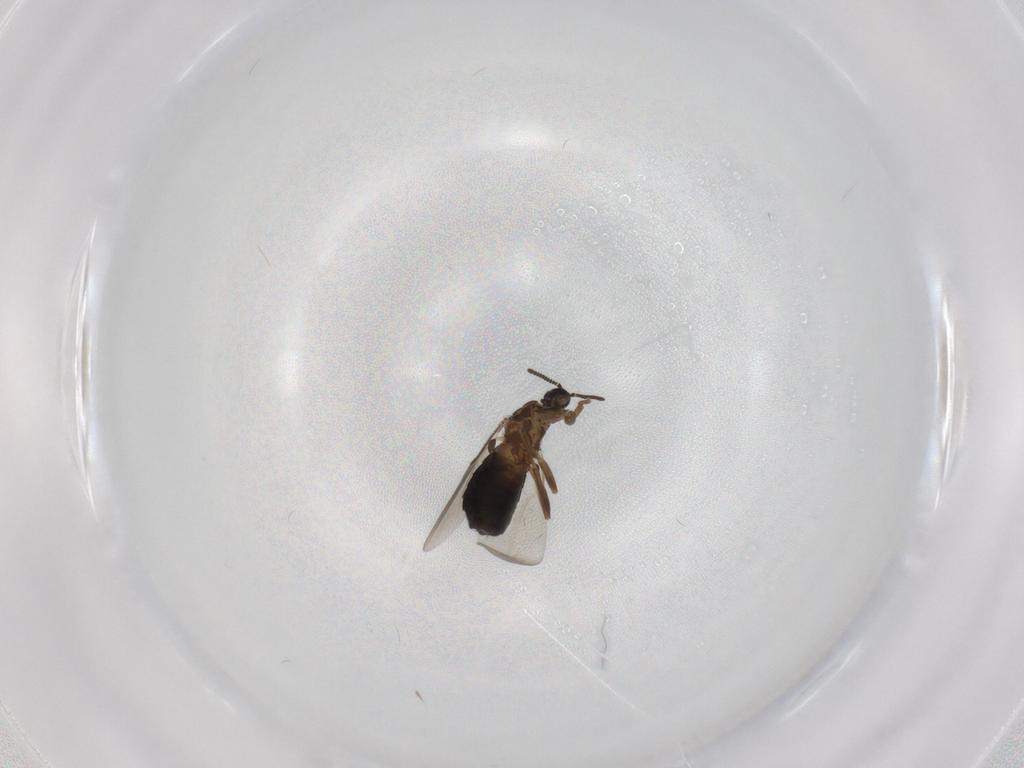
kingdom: Animalia
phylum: Arthropoda
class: Insecta
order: Diptera
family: Scatopsidae
